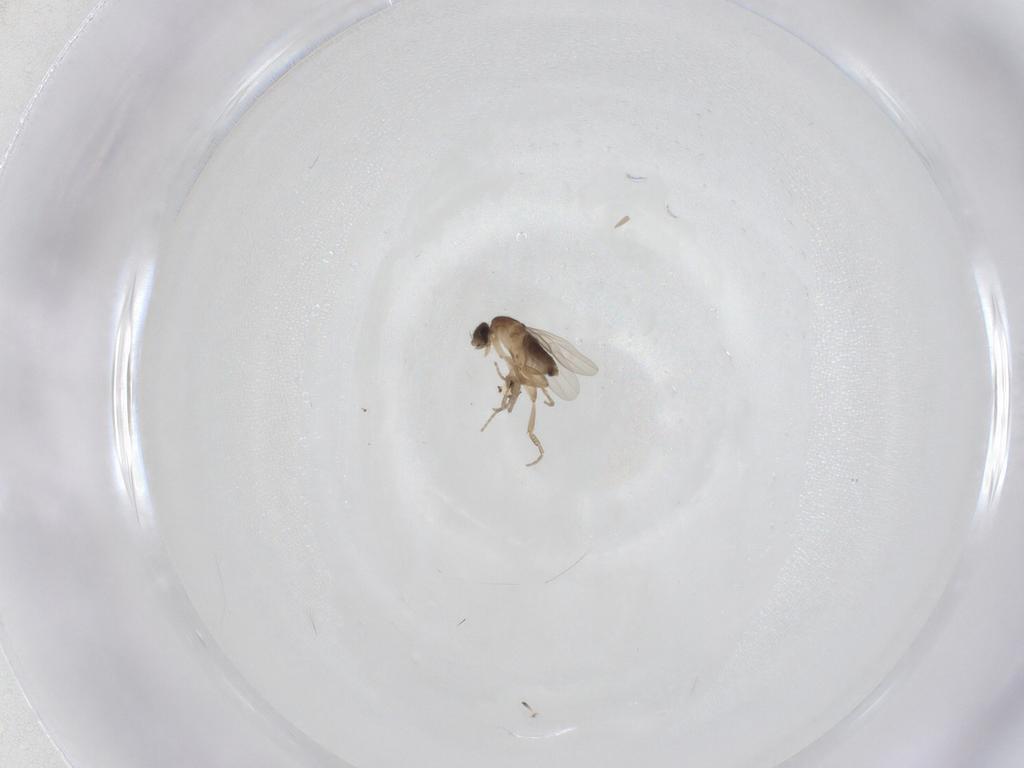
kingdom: Animalia
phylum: Arthropoda
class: Insecta
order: Diptera
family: Phoridae
